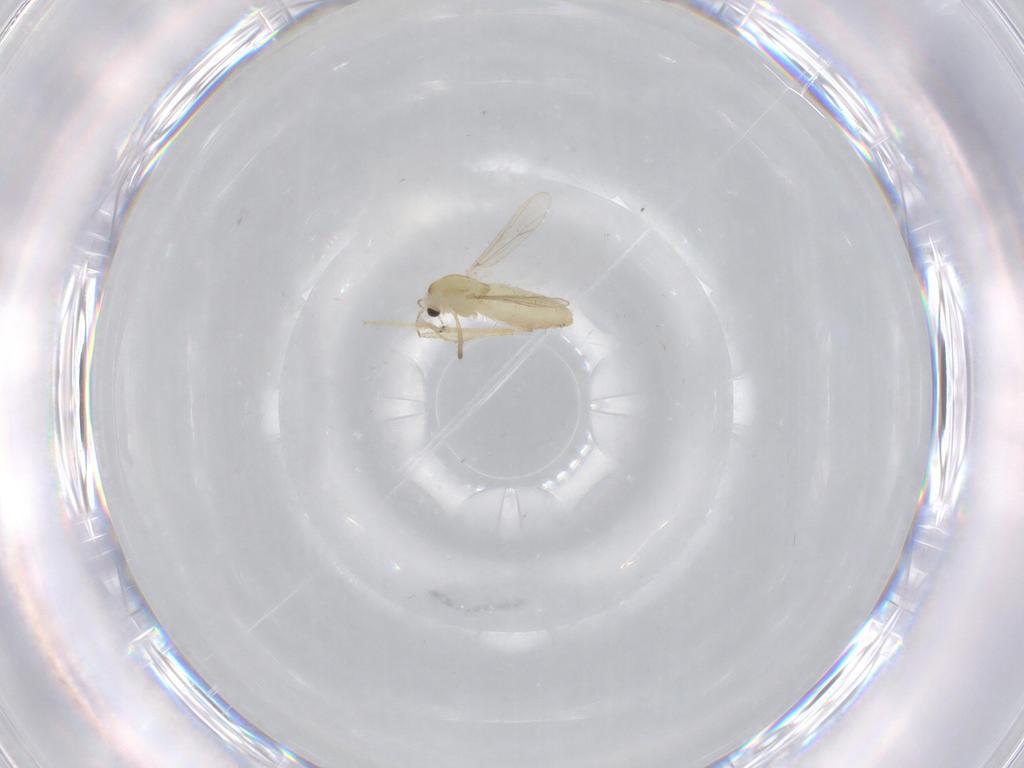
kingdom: Animalia
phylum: Arthropoda
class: Insecta
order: Diptera
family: Chironomidae
